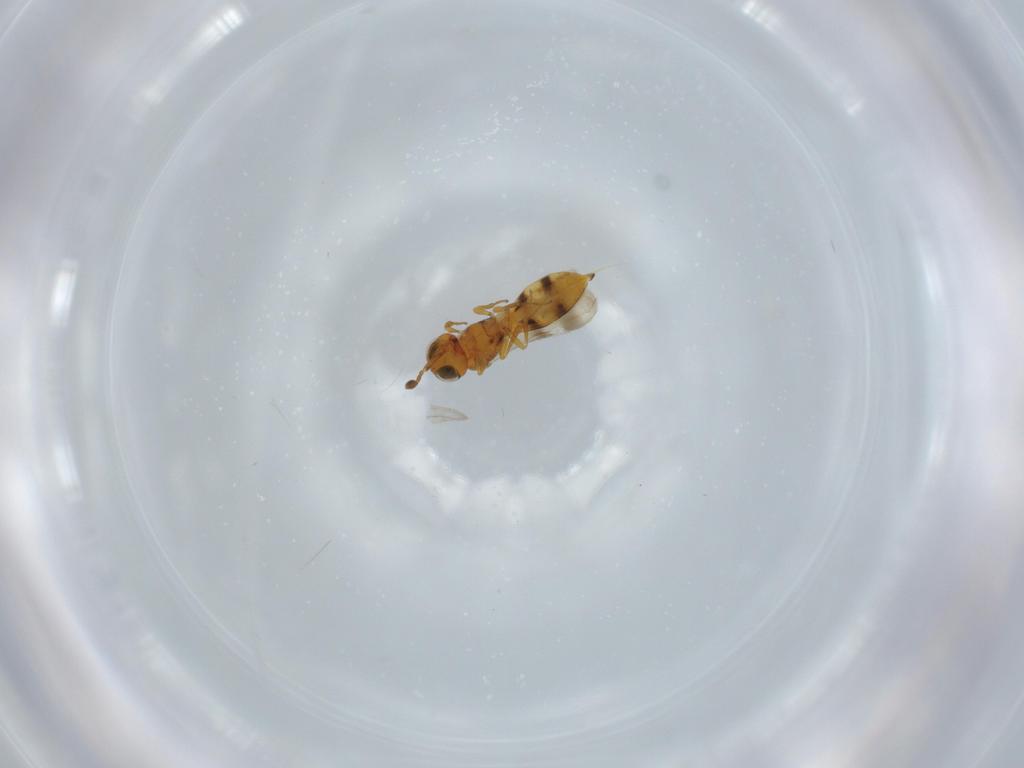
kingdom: Animalia
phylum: Arthropoda
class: Insecta
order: Hymenoptera
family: Scelionidae
